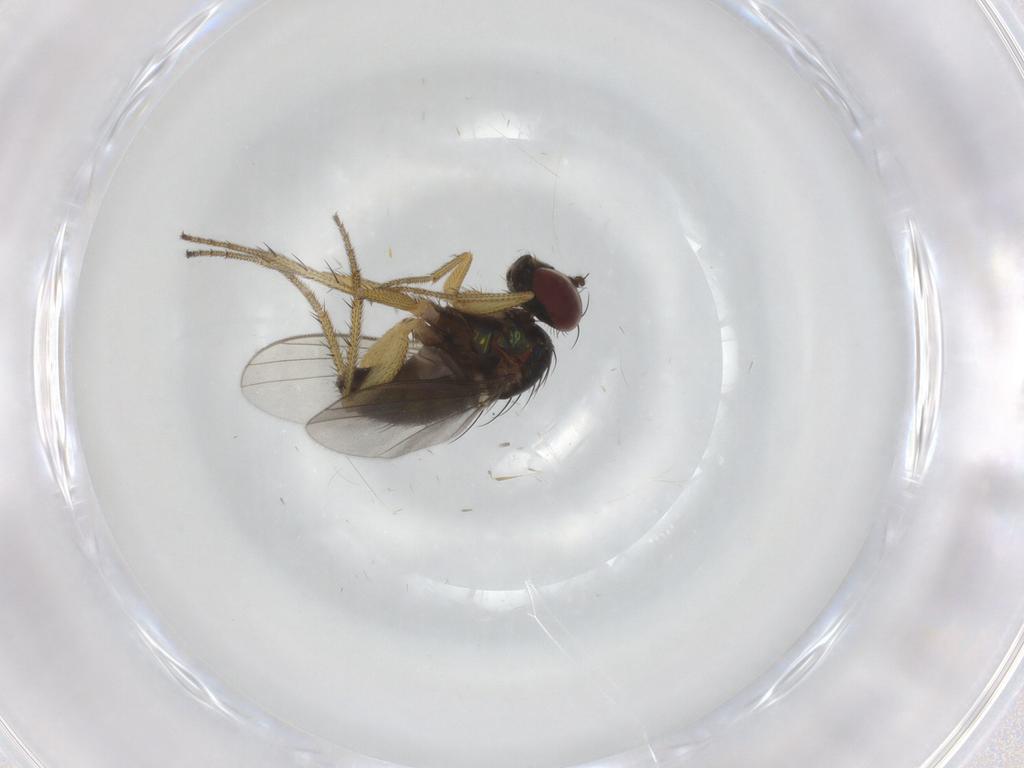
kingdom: Animalia
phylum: Arthropoda
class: Insecta
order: Diptera
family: Dolichopodidae
